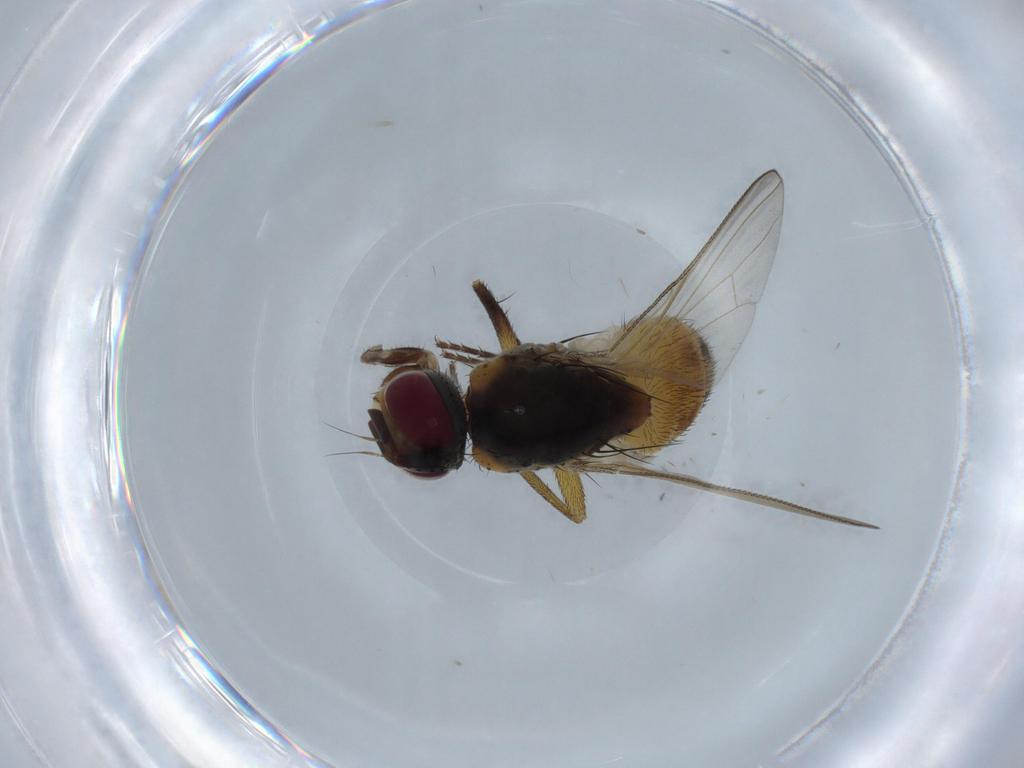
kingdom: Animalia
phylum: Arthropoda
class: Insecta
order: Diptera
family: Muscidae
